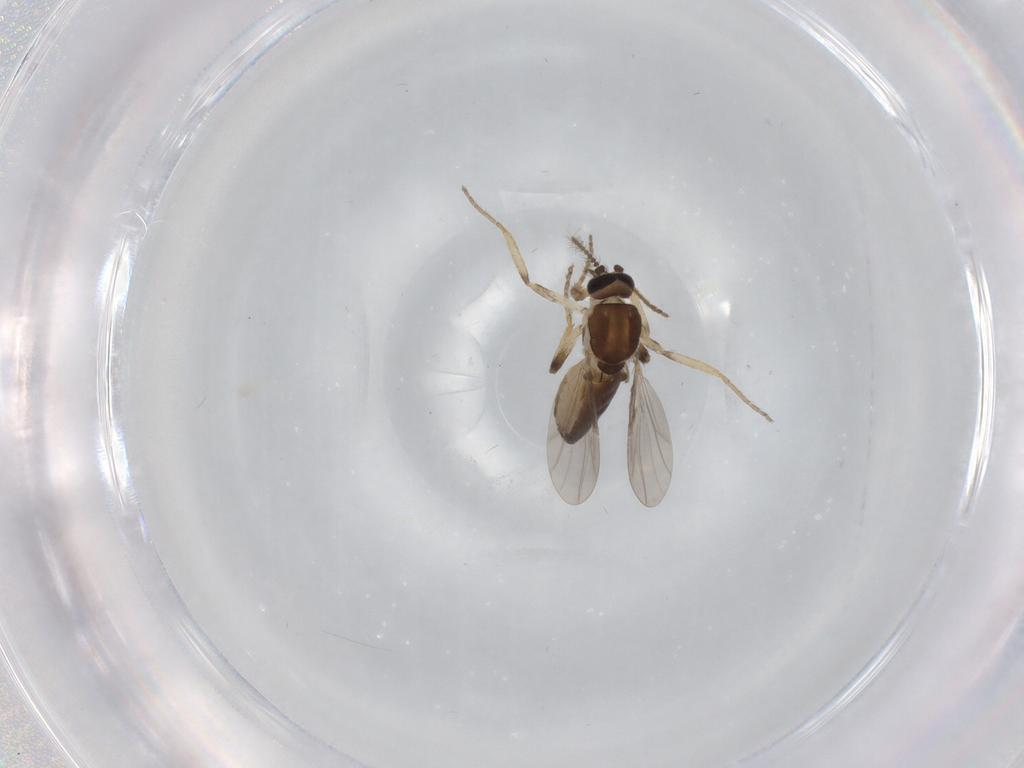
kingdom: Animalia
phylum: Arthropoda
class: Insecta
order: Diptera
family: Ceratopogonidae
